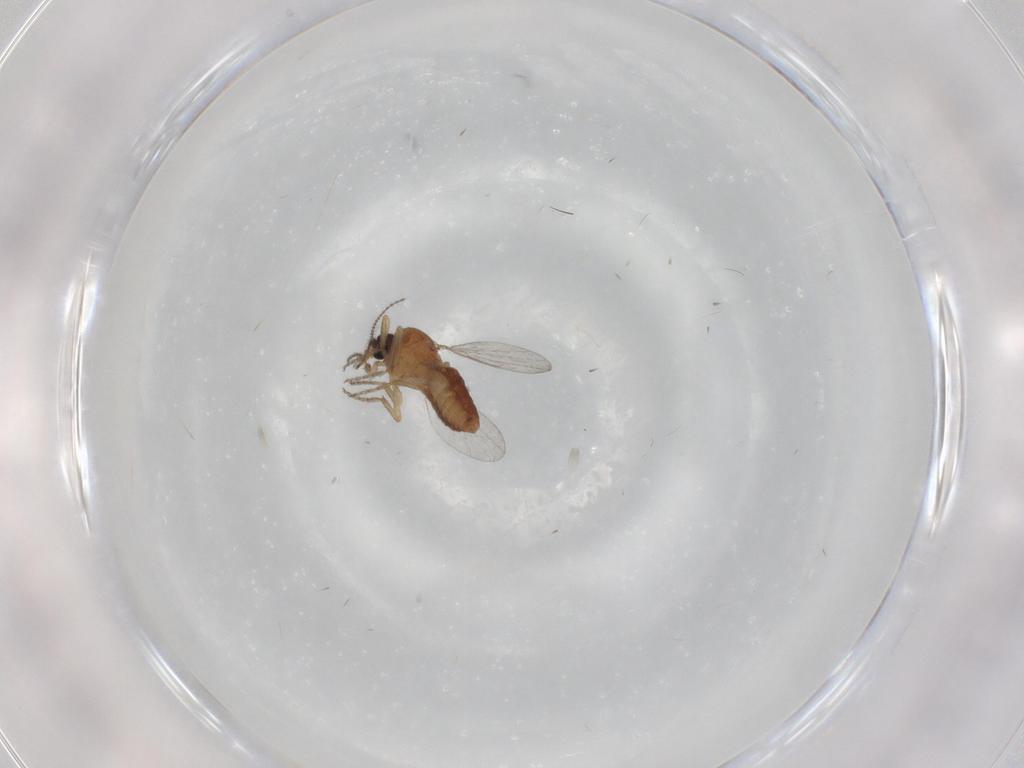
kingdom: Animalia
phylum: Arthropoda
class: Insecta
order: Diptera
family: Ceratopogonidae
